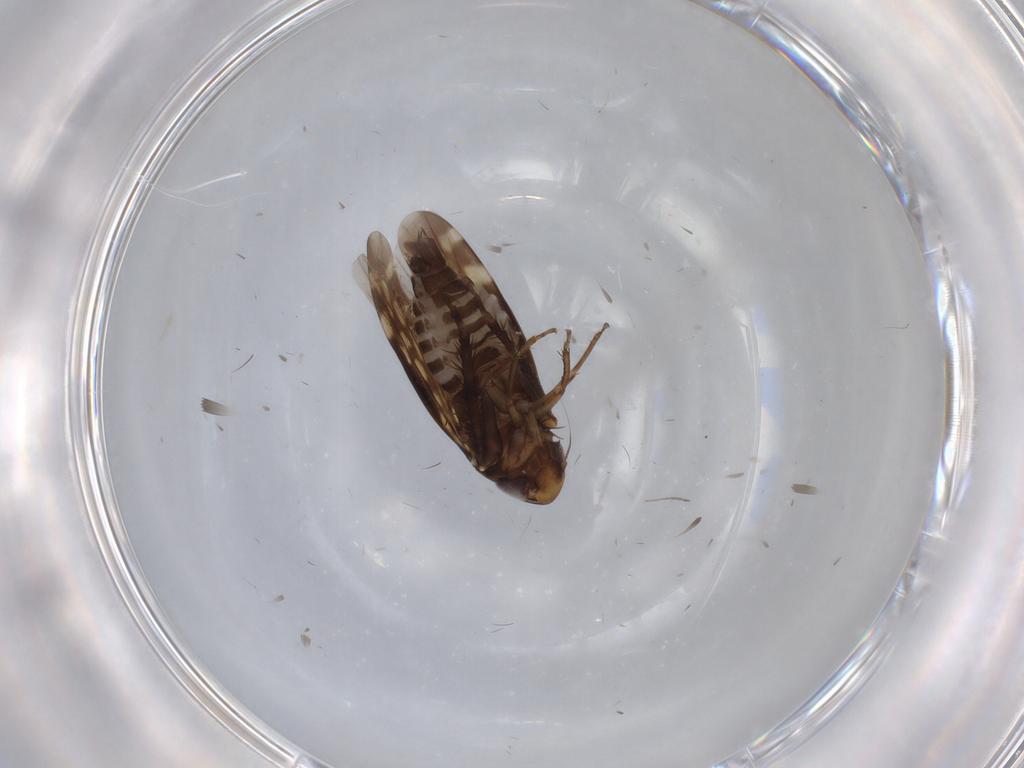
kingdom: Animalia
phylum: Arthropoda
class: Insecta
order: Hemiptera
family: Cicadellidae
